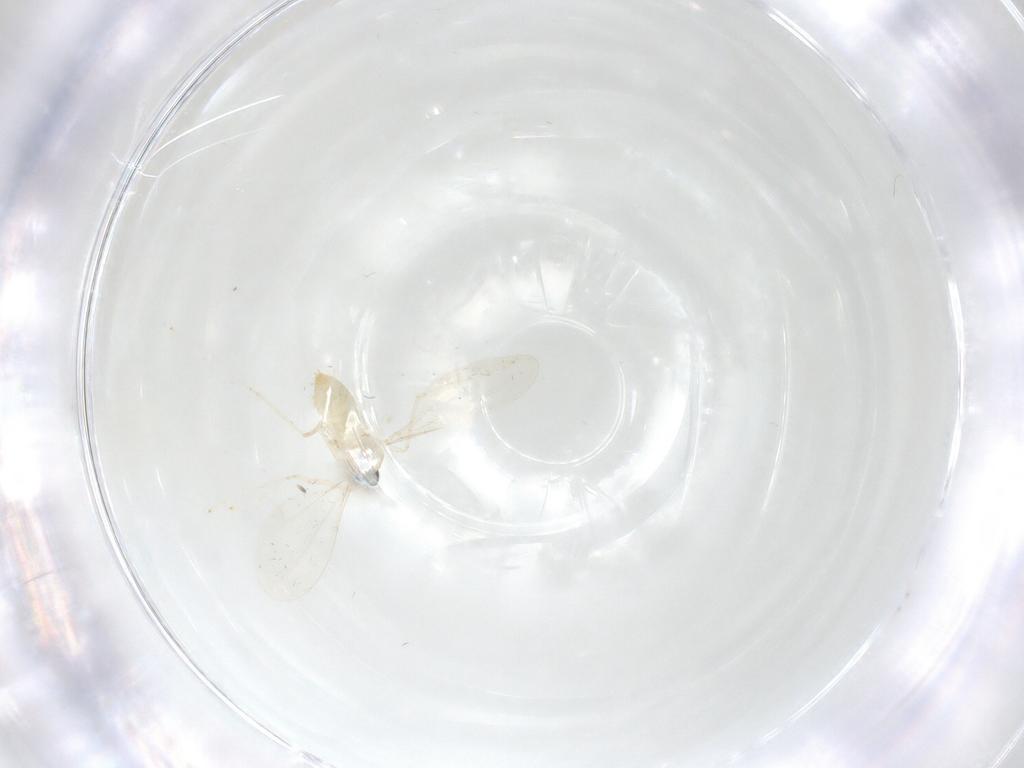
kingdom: Animalia
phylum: Arthropoda
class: Insecta
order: Diptera
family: Cecidomyiidae
